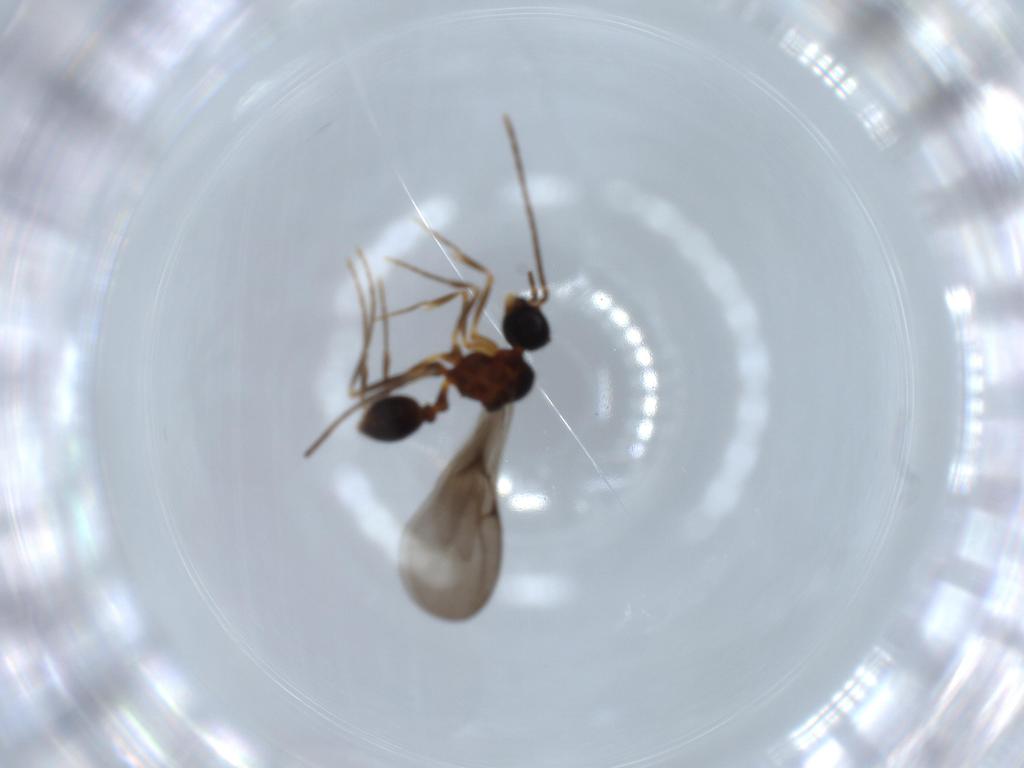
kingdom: Animalia
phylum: Arthropoda
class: Insecta
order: Hymenoptera
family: Formicidae
